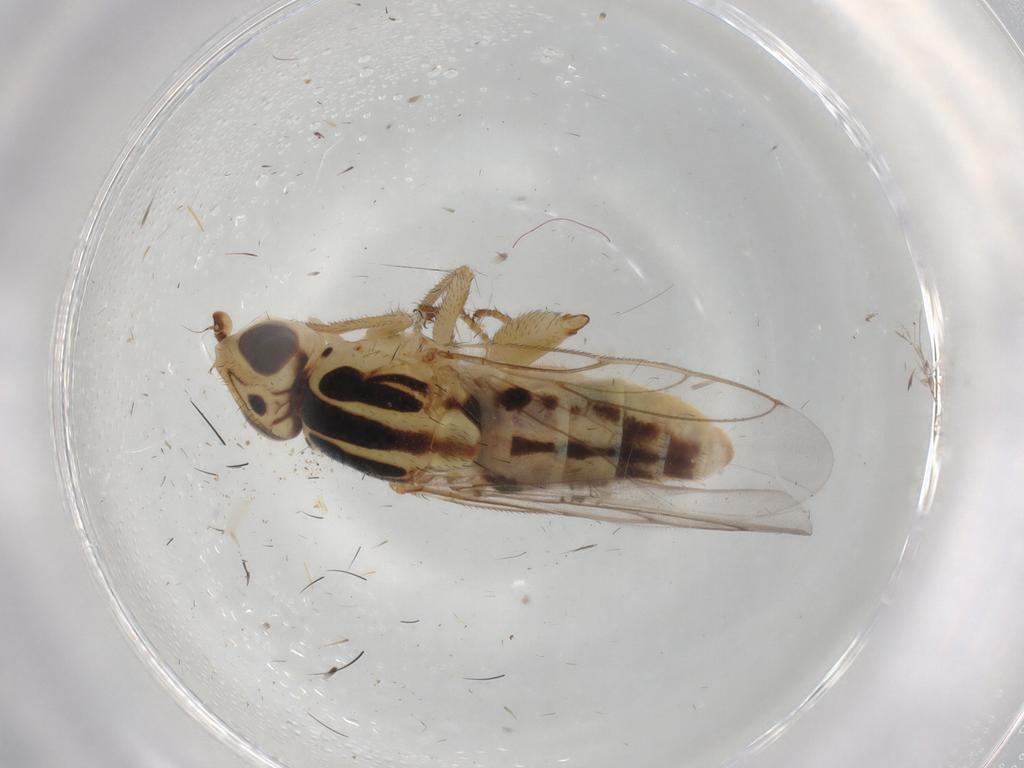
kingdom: Animalia
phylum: Arthropoda
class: Insecta
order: Diptera
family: Chloropidae
